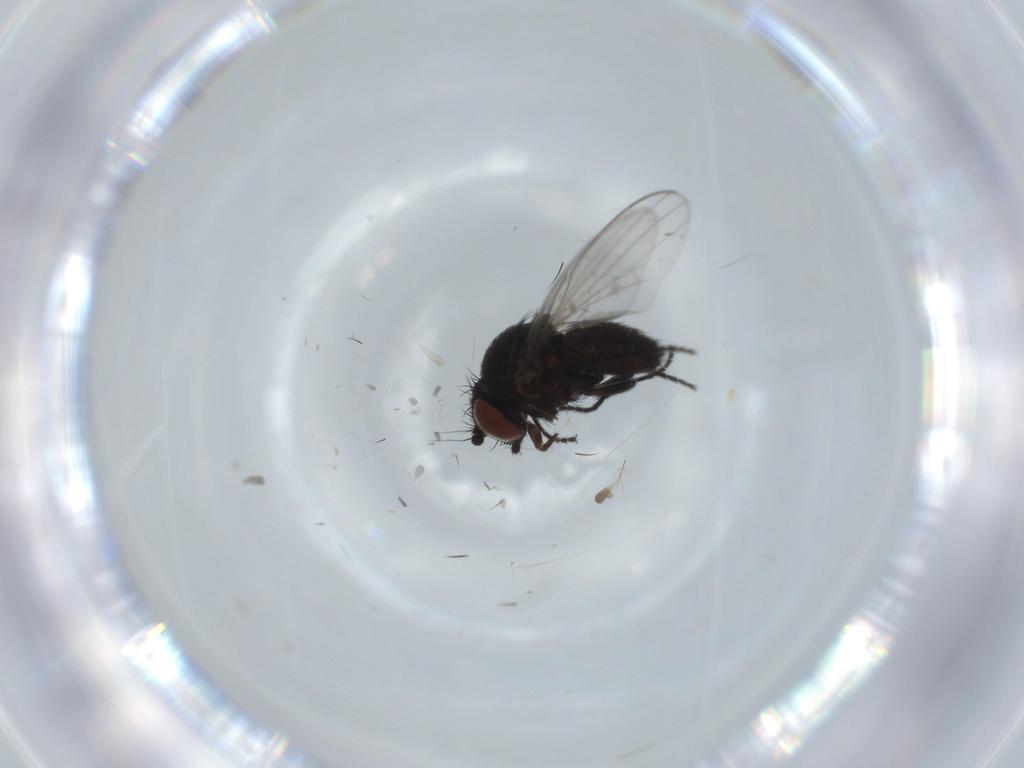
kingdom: Animalia
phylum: Arthropoda
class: Insecta
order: Diptera
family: Milichiidae
